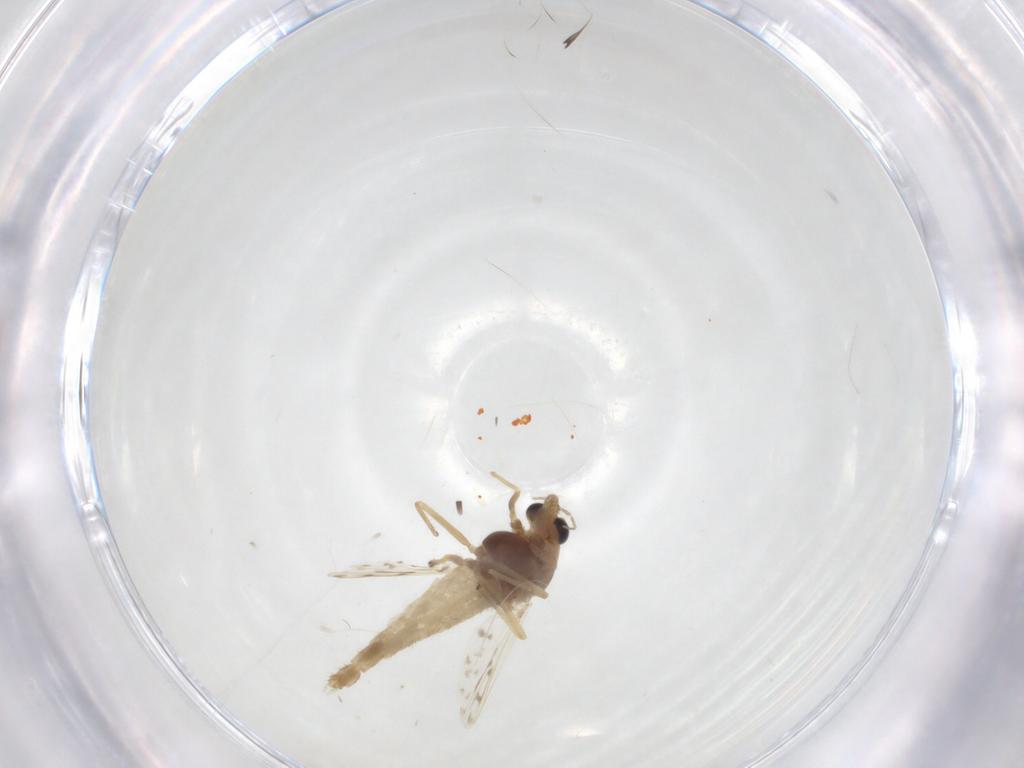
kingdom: Animalia
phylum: Arthropoda
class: Insecta
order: Diptera
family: Chironomidae
